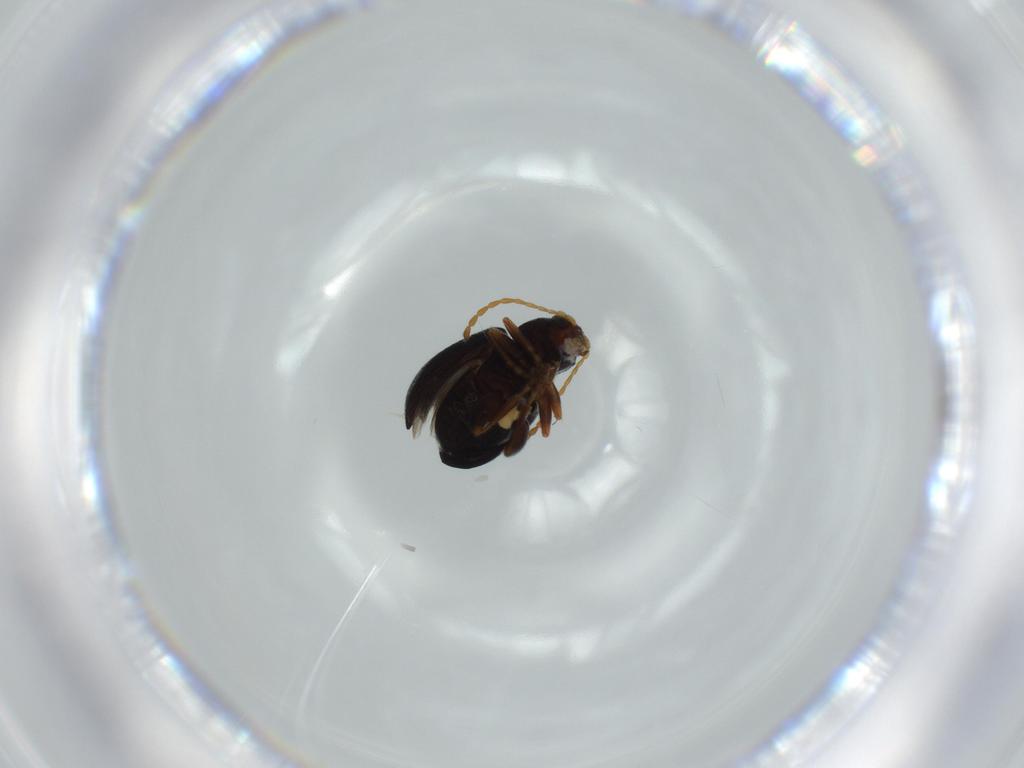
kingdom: Animalia
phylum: Arthropoda
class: Insecta
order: Coleoptera
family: Chrysomelidae
